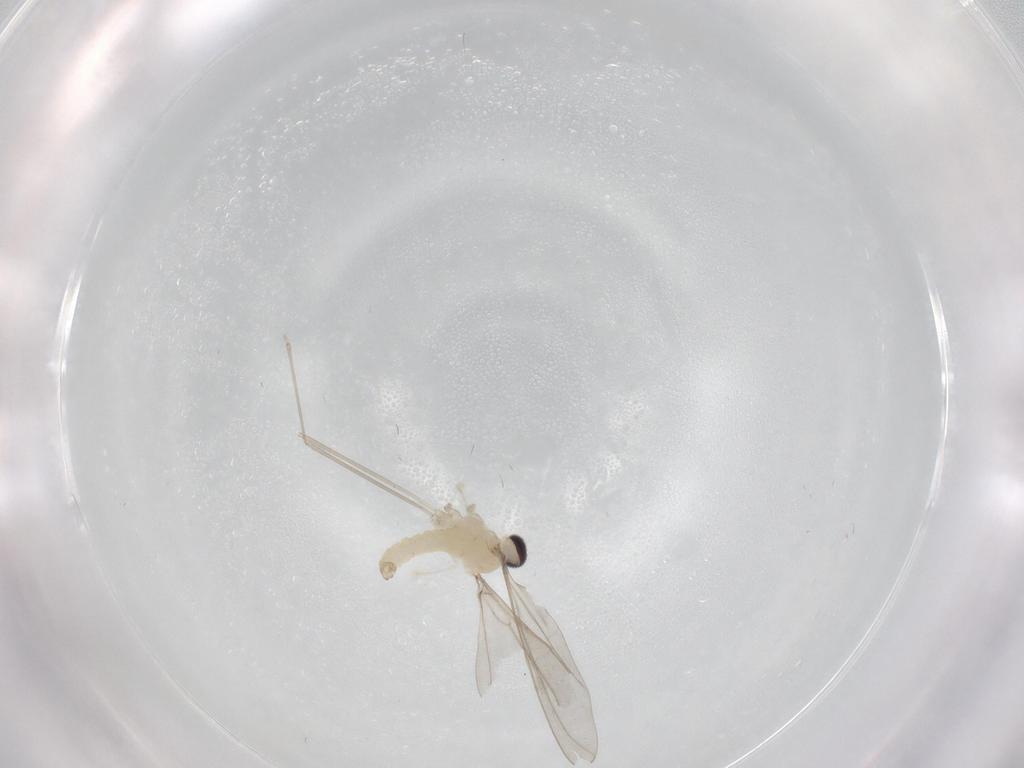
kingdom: Animalia
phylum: Arthropoda
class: Insecta
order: Diptera
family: Cecidomyiidae
